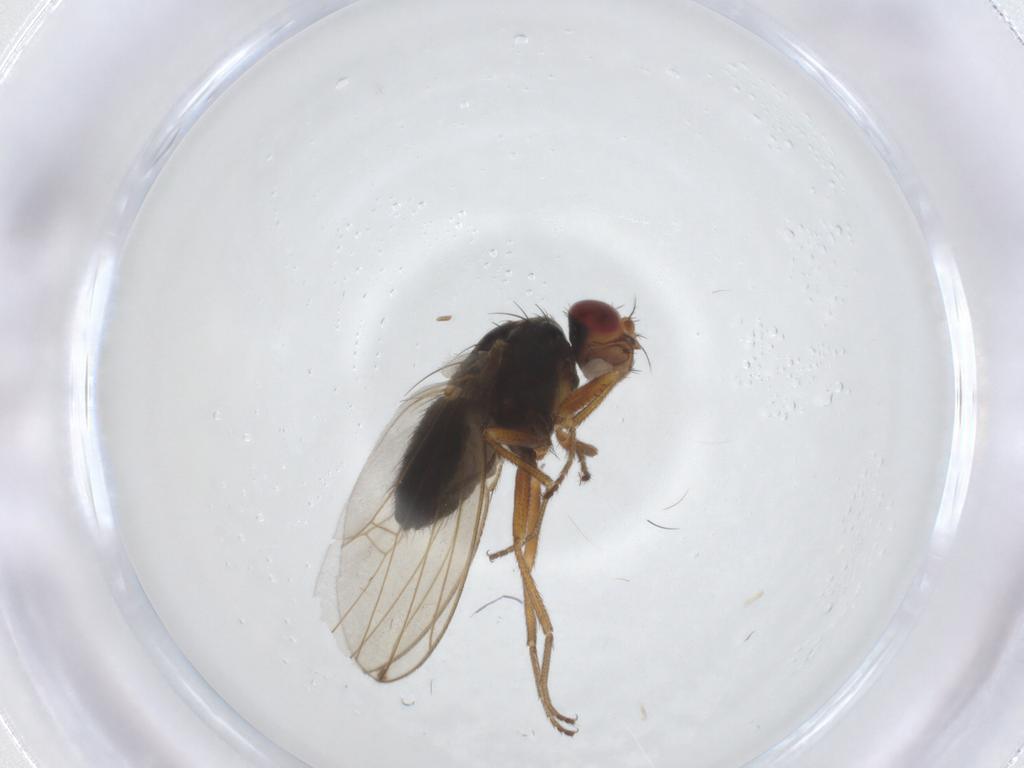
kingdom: Animalia
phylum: Arthropoda
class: Insecta
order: Diptera
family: Drosophilidae
